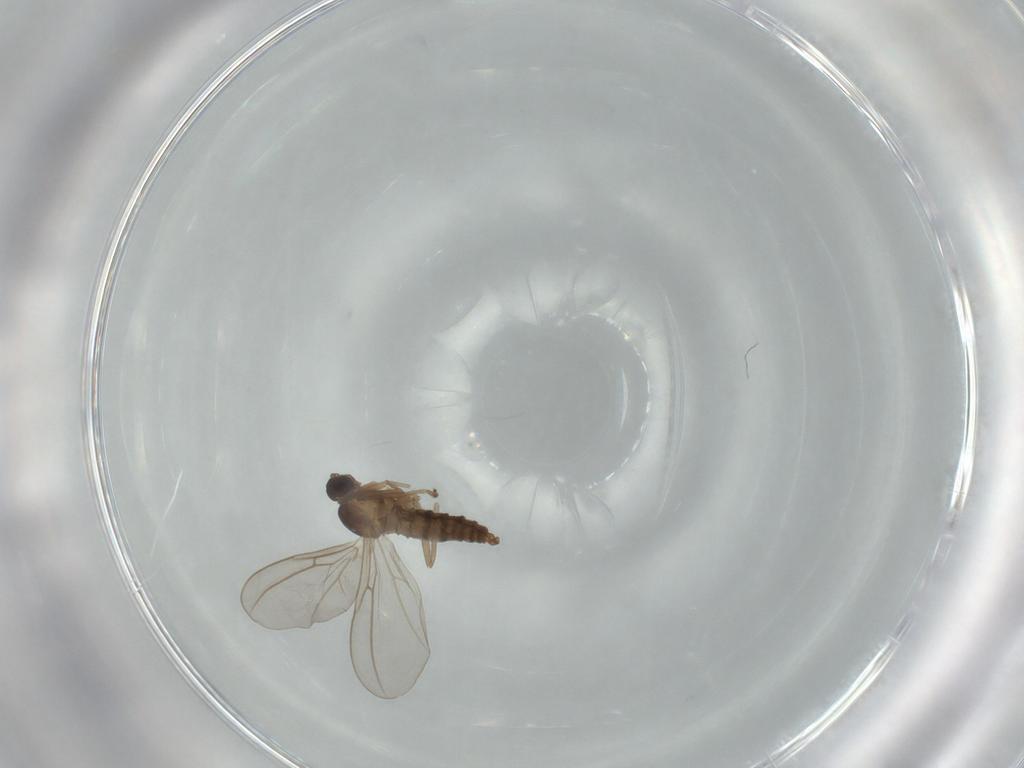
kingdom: Animalia
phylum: Arthropoda
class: Insecta
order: Diptera
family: Cecidomyiidae
